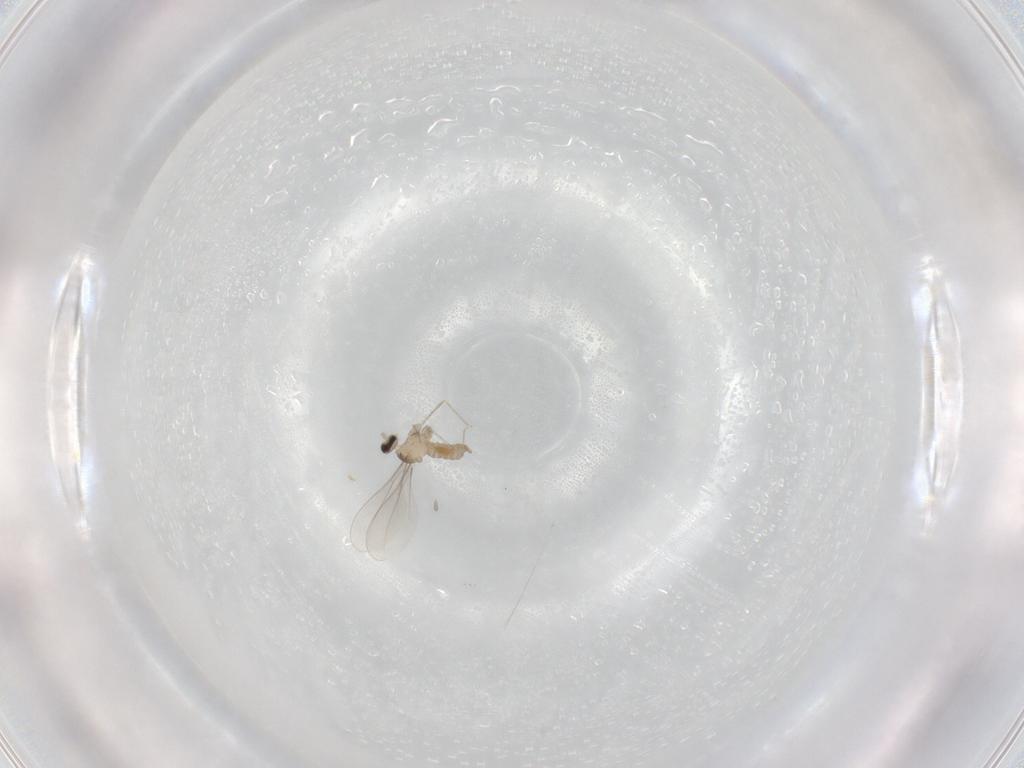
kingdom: Animalia
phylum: Arthropoda
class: Insecta
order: Diptera
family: Cecidomyiidae
